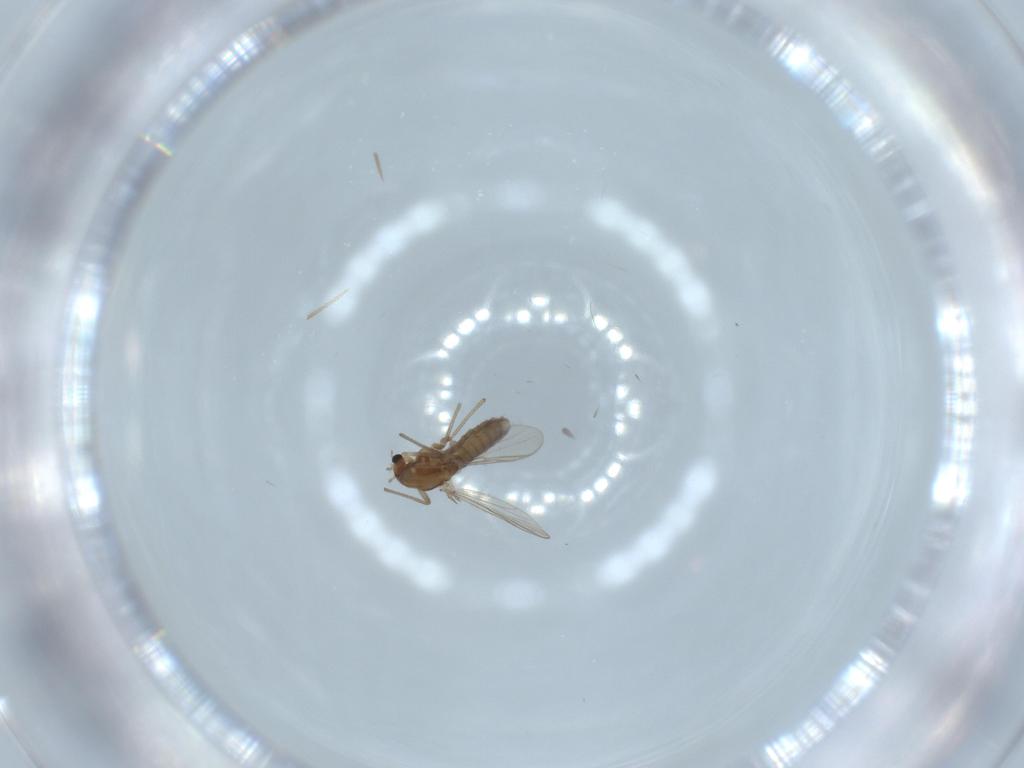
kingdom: Animalia
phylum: Arthropoda
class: Insecta
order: Diptera
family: Chironomidae
